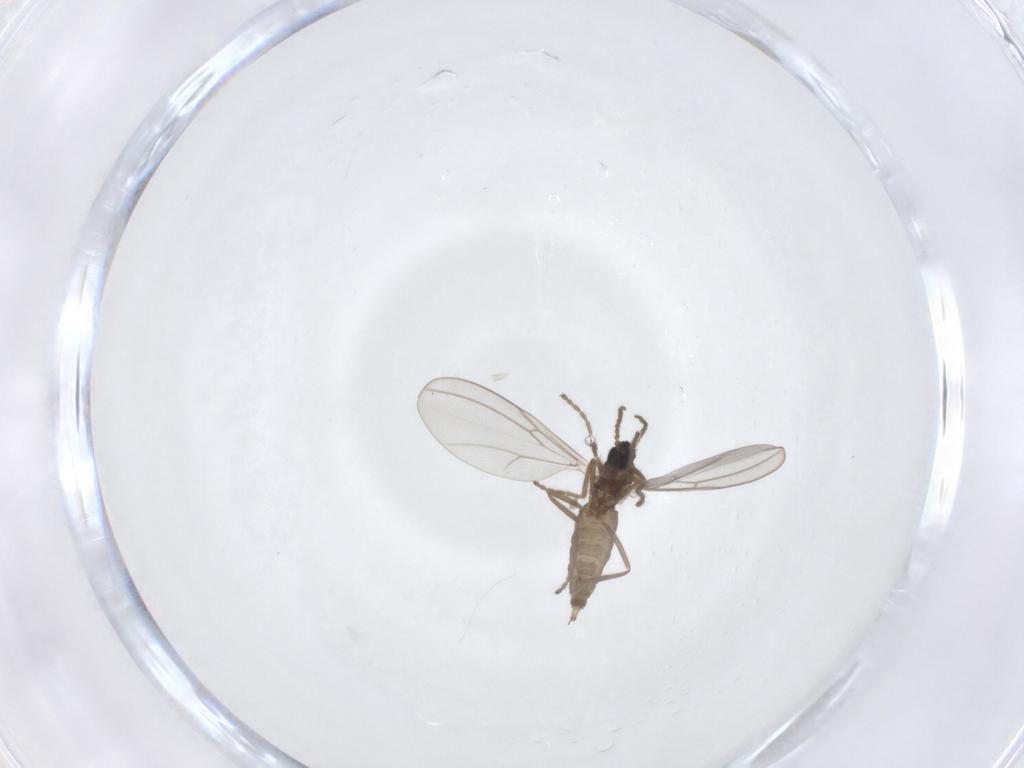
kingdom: Animalia
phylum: Arthropoda
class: Insecta
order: Diptera
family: Cecidomyiidae
